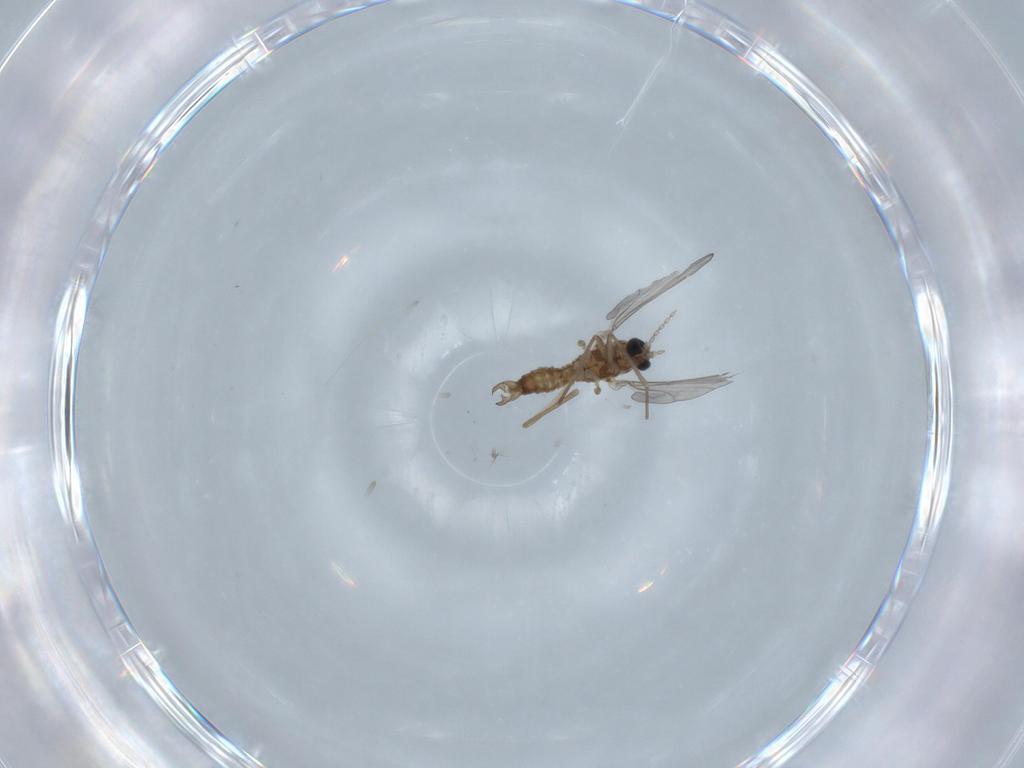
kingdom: Animalia
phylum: Arthropoda
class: Insecta
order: Diptera
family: Cecidomyiidae
